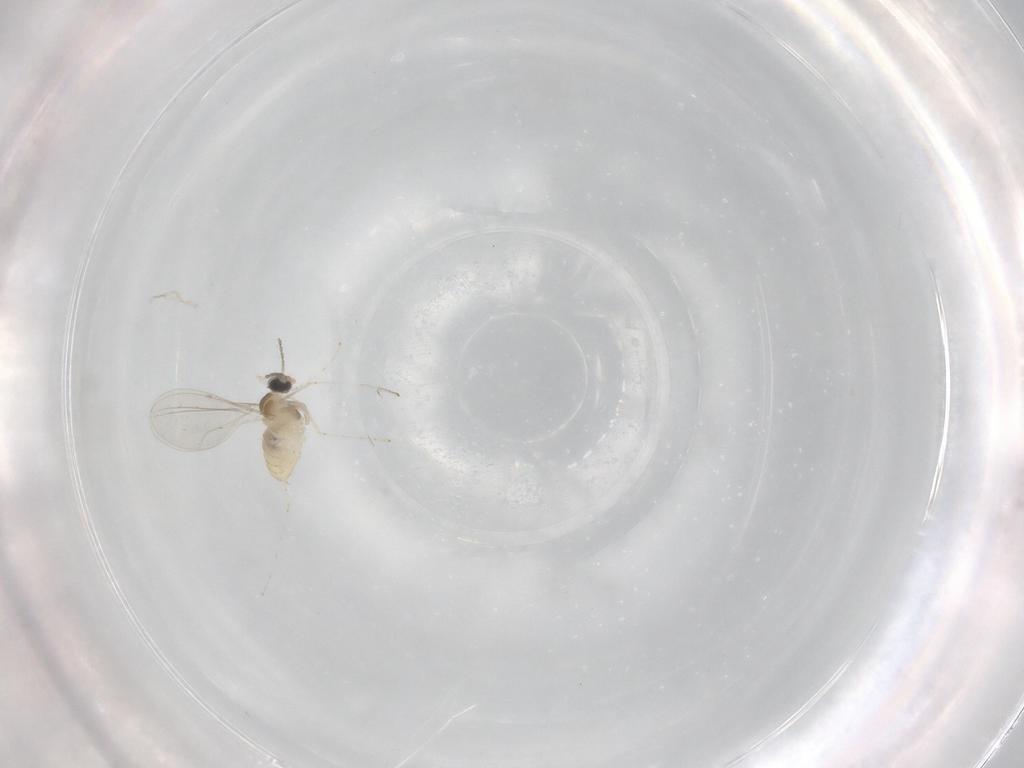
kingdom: Animalia
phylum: Arthropoda
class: Insecta
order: Diptera
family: Cecidomyiidae
